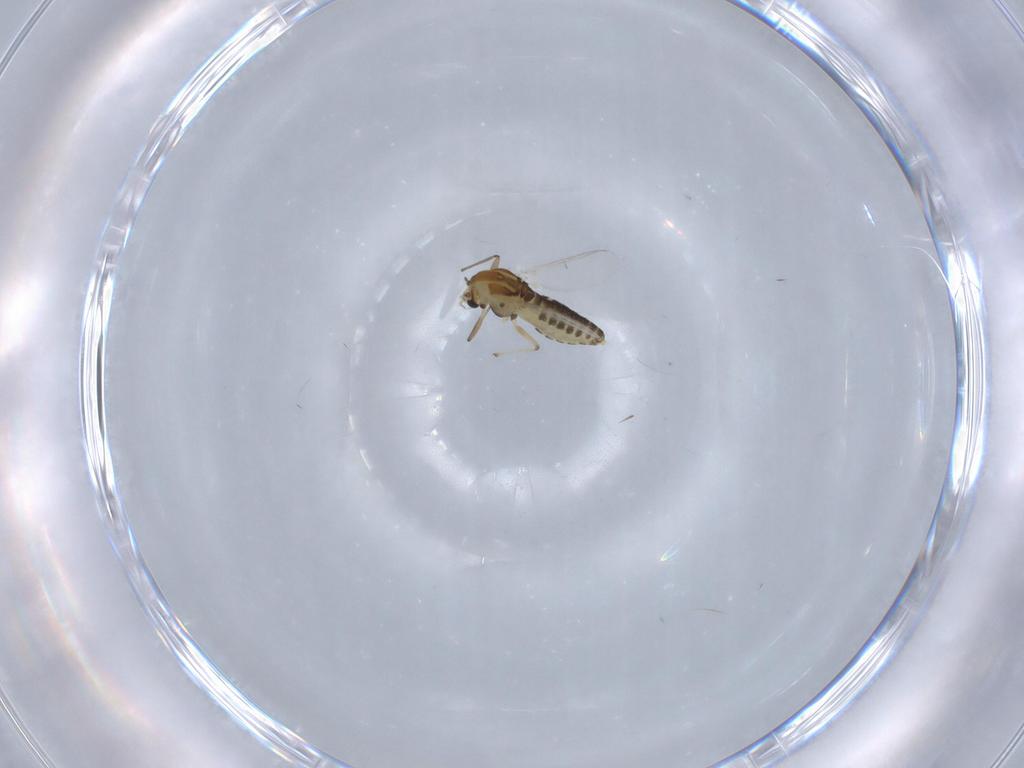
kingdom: Animalia
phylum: Arthropoda
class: Insecta
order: Diptera
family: Chironomidae
